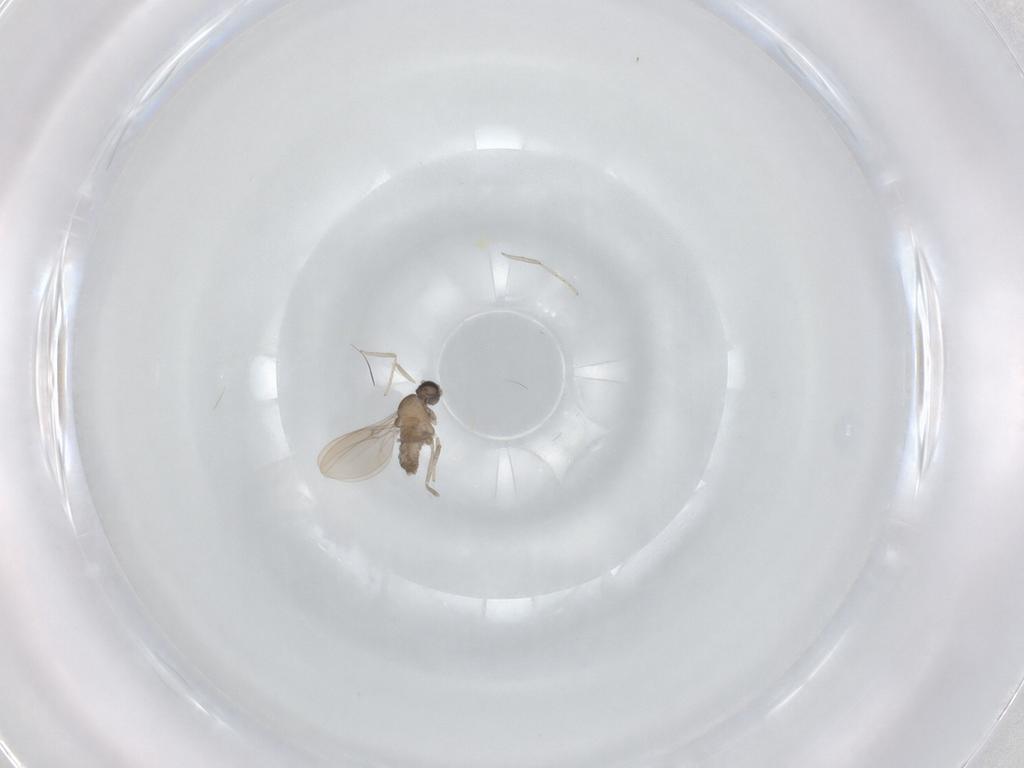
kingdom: Animalia
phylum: Arthropoda
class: Insecta
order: Diptera
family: Cecidomyiidae
